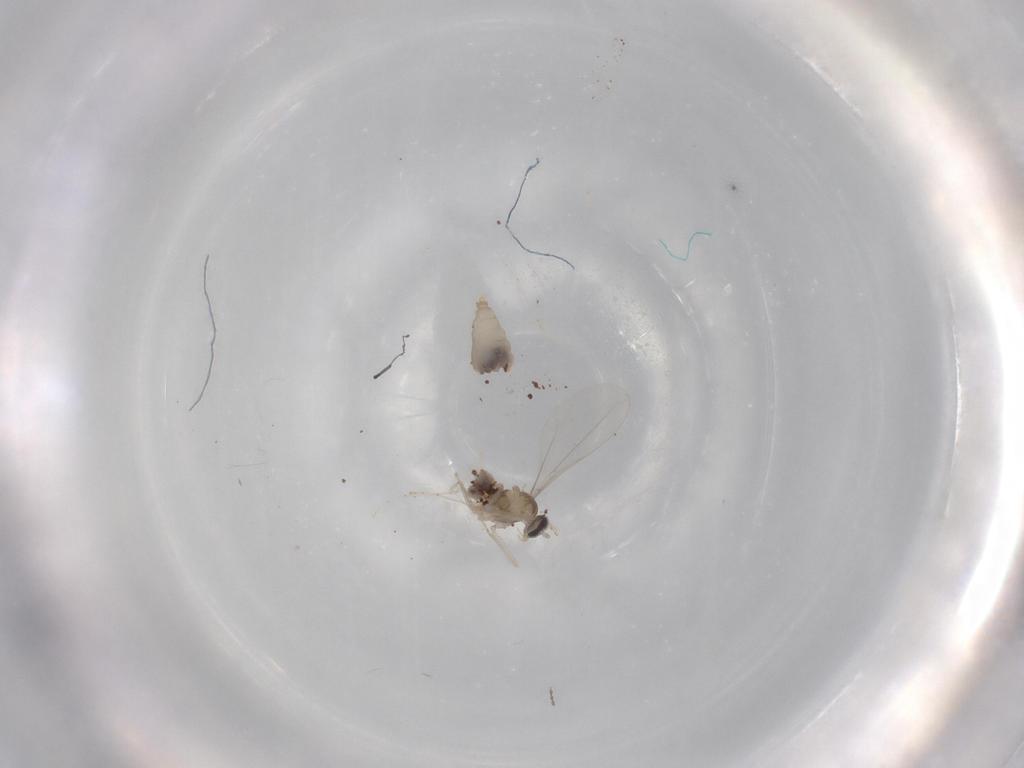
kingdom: Animalia
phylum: Arthropoda
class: Insecta
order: Diptera
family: Cecidomyiidae
